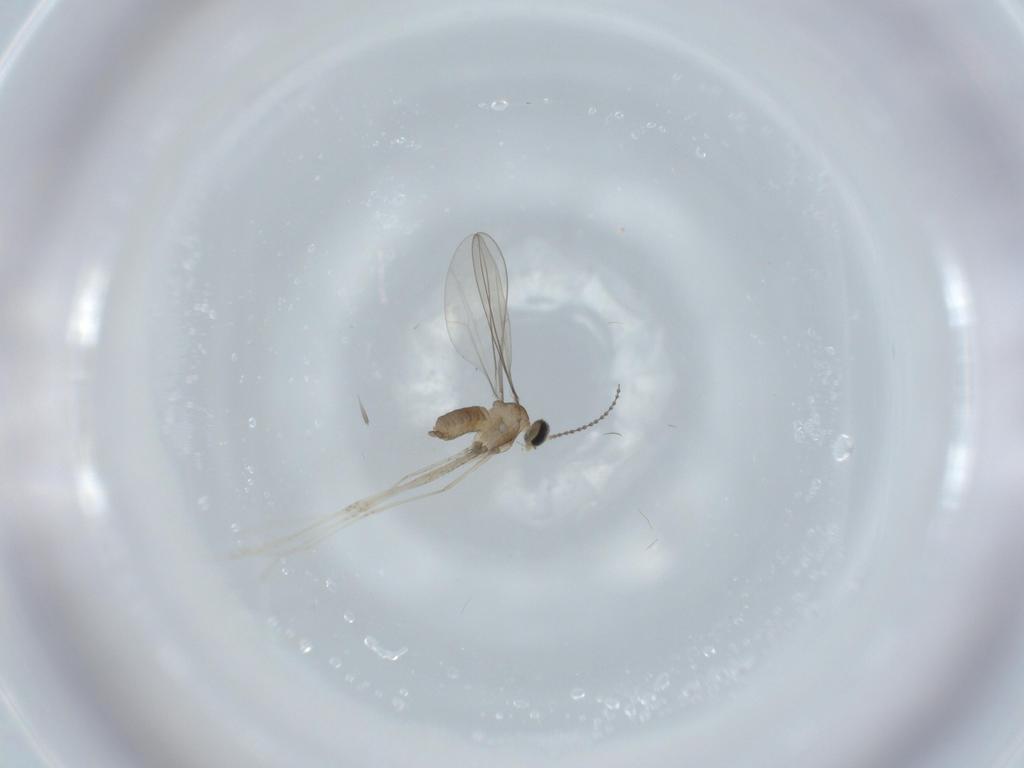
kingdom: Animalia
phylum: Arthropoda
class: Insecta
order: Diptera
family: Cecidomyiidae
